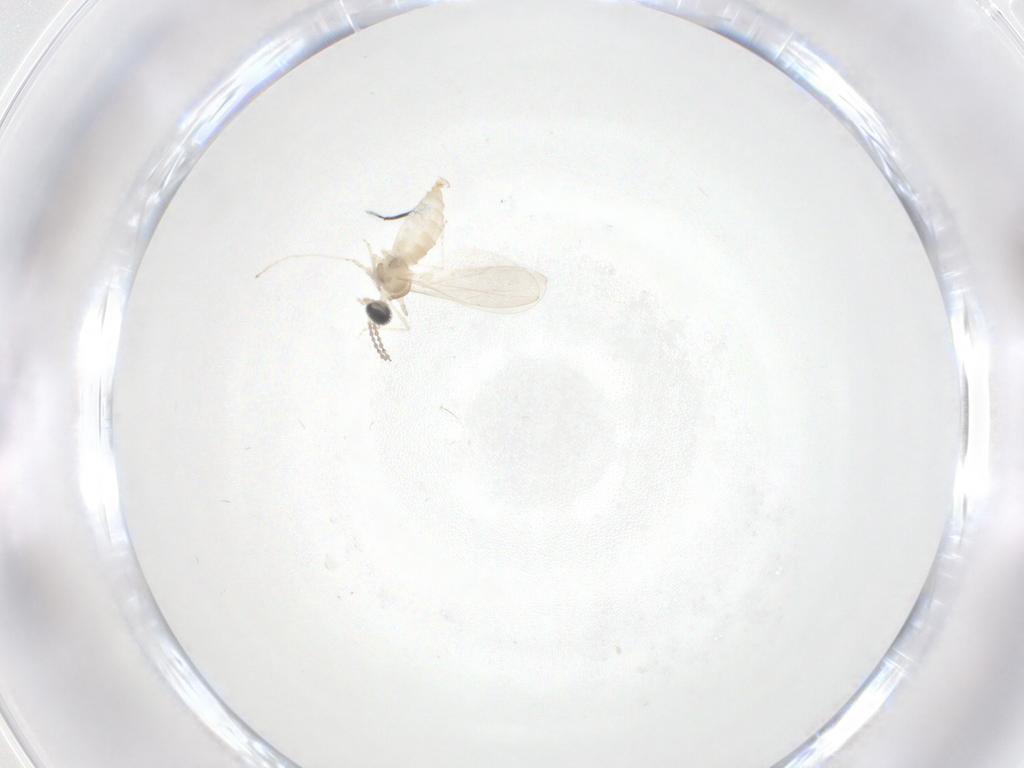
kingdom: Animalia
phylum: Arthropoda
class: Insecta
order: Diptera
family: Cecidomyiidae
